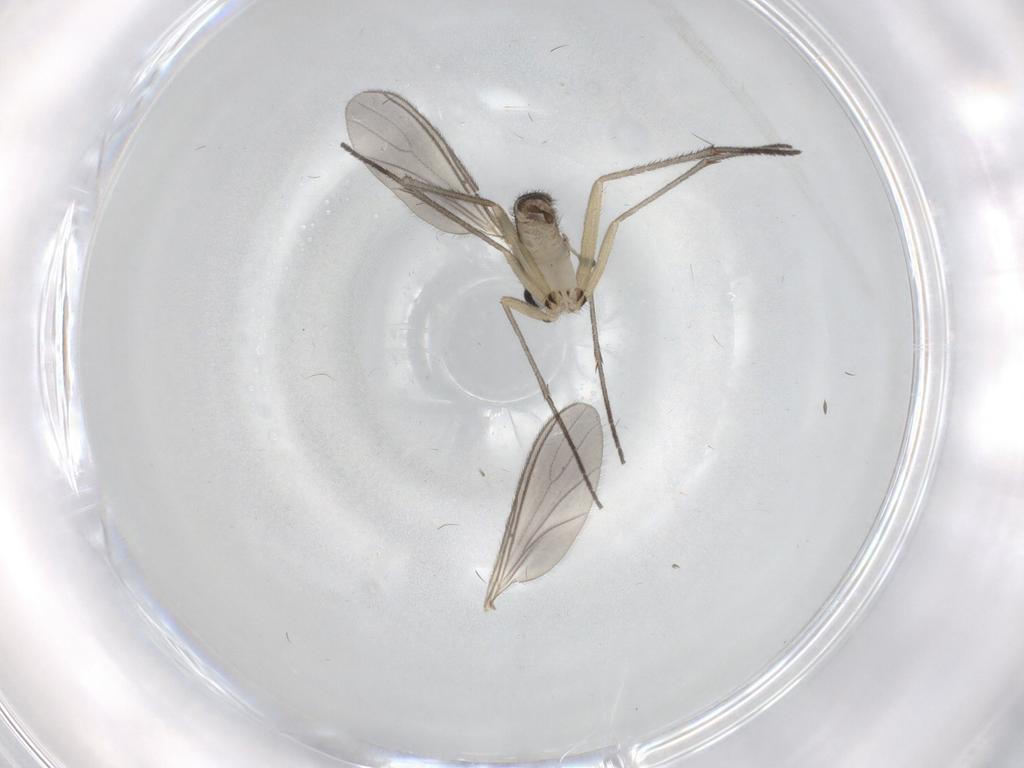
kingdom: Animalia
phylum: Arthropoda
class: Insecta
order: Diptera
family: Sciaridae
